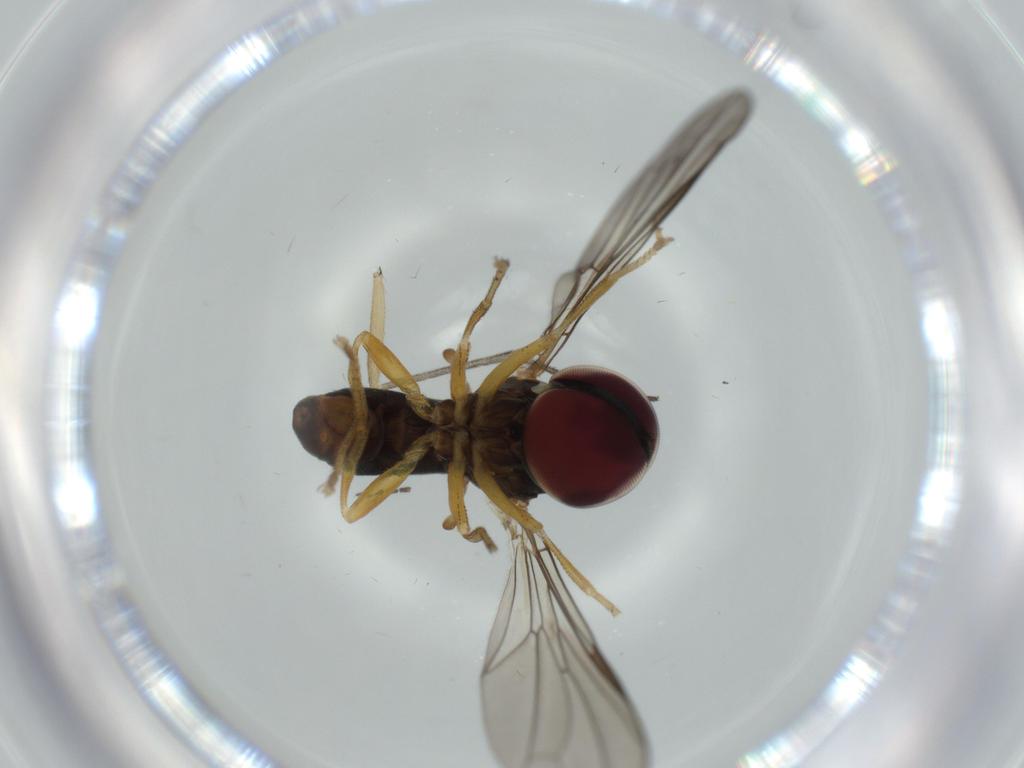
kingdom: Animalia
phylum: Arthropoda
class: Insecta
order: Diptera
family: Pipunculidae
